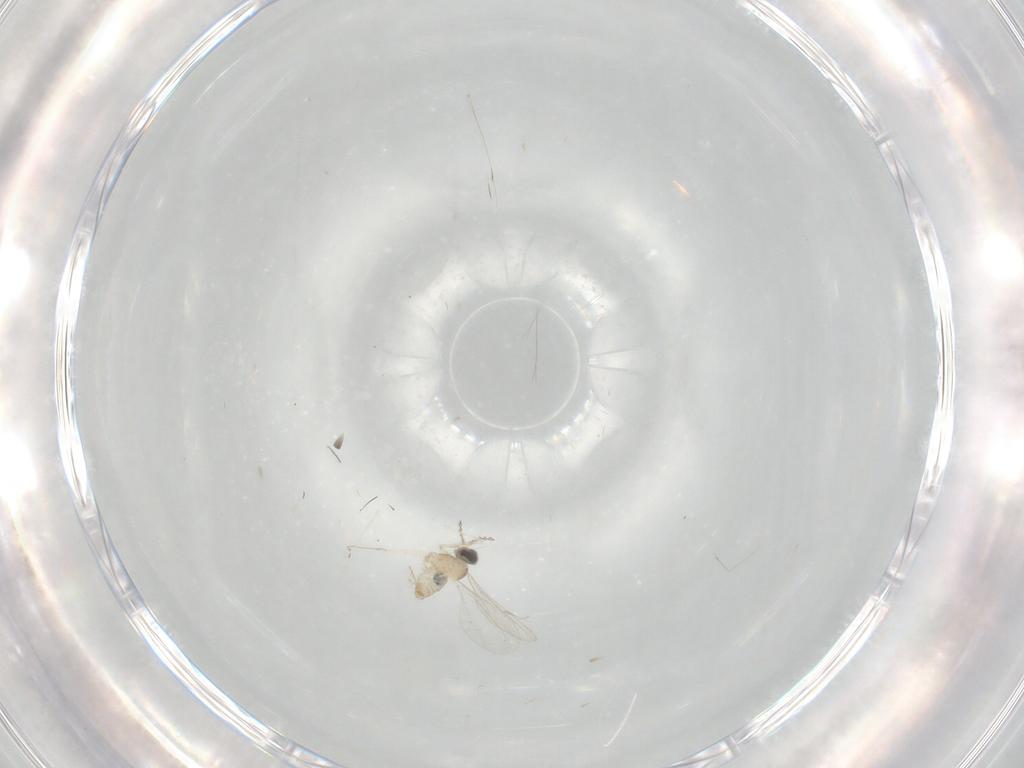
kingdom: Animalia
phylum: Arthropoda
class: Insecta
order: Diptera
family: Cecidomyiidae
